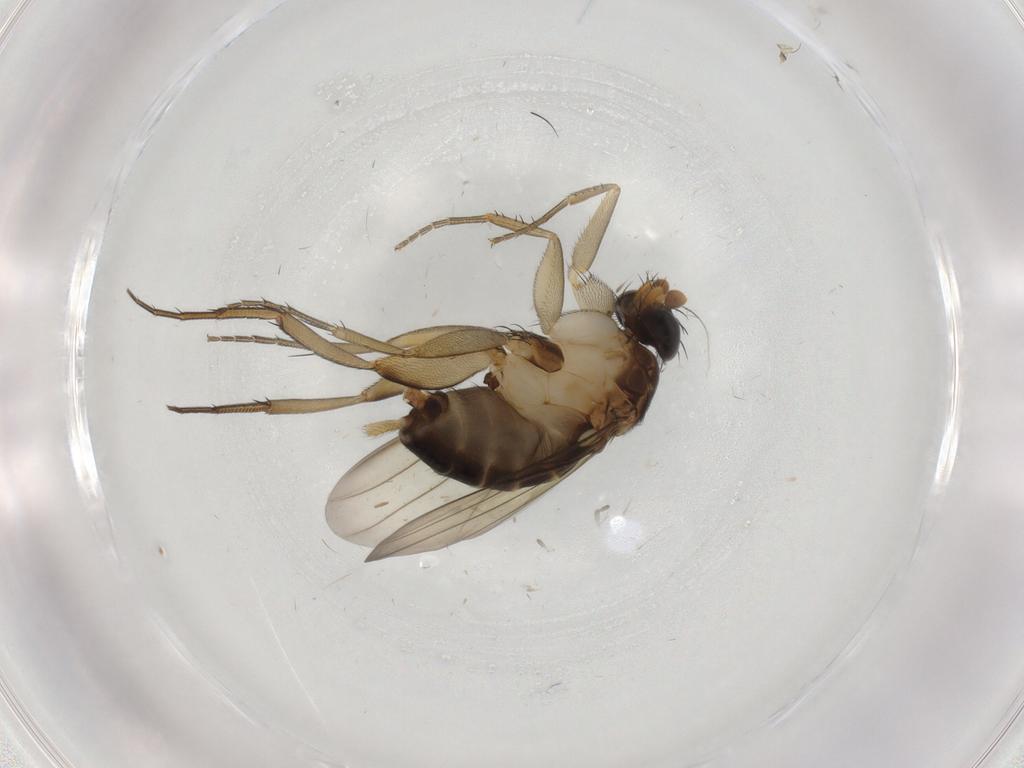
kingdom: Animalia
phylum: Arthropoda
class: Insecta
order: Diptera
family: Phoridae
